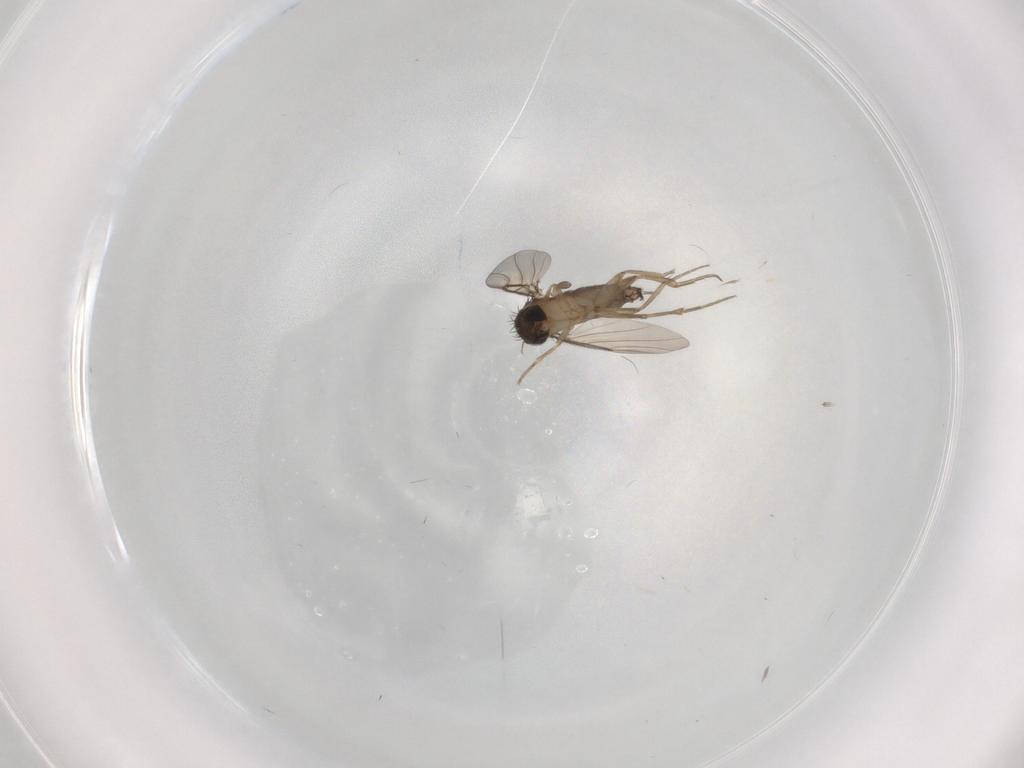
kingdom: Animalia
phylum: Arthropoda
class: Insecta
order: Diptera
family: Phoridae
